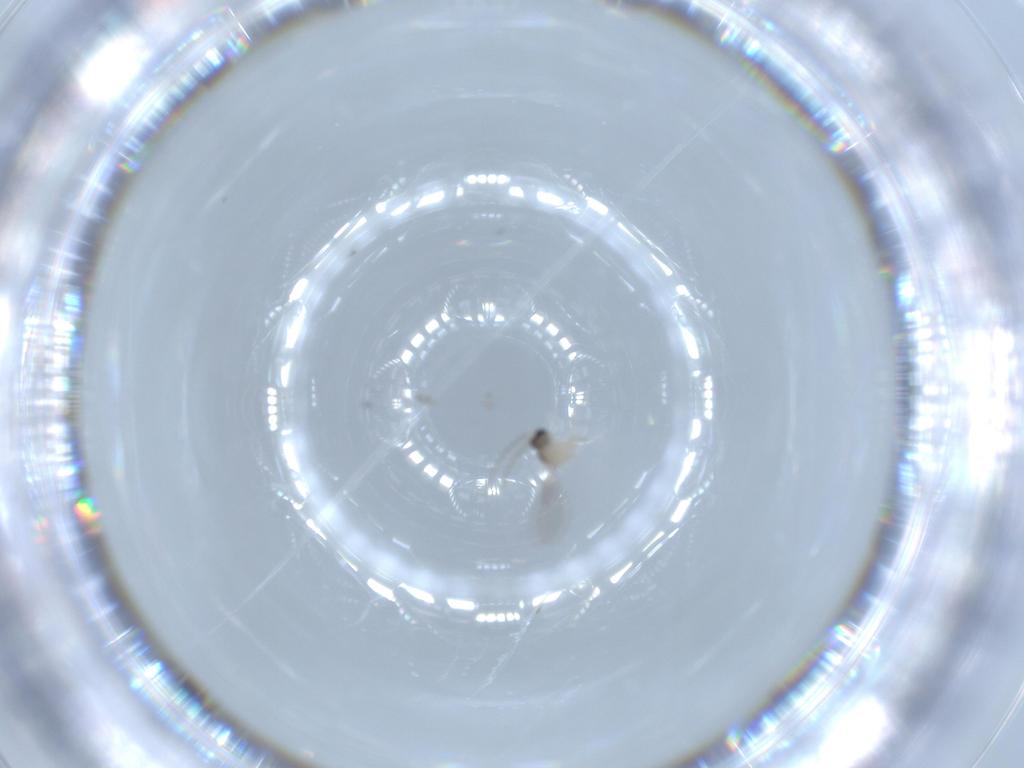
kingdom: Animalia
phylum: Arthropoda
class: Insecta
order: Diptera
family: Cecidomyiidae
